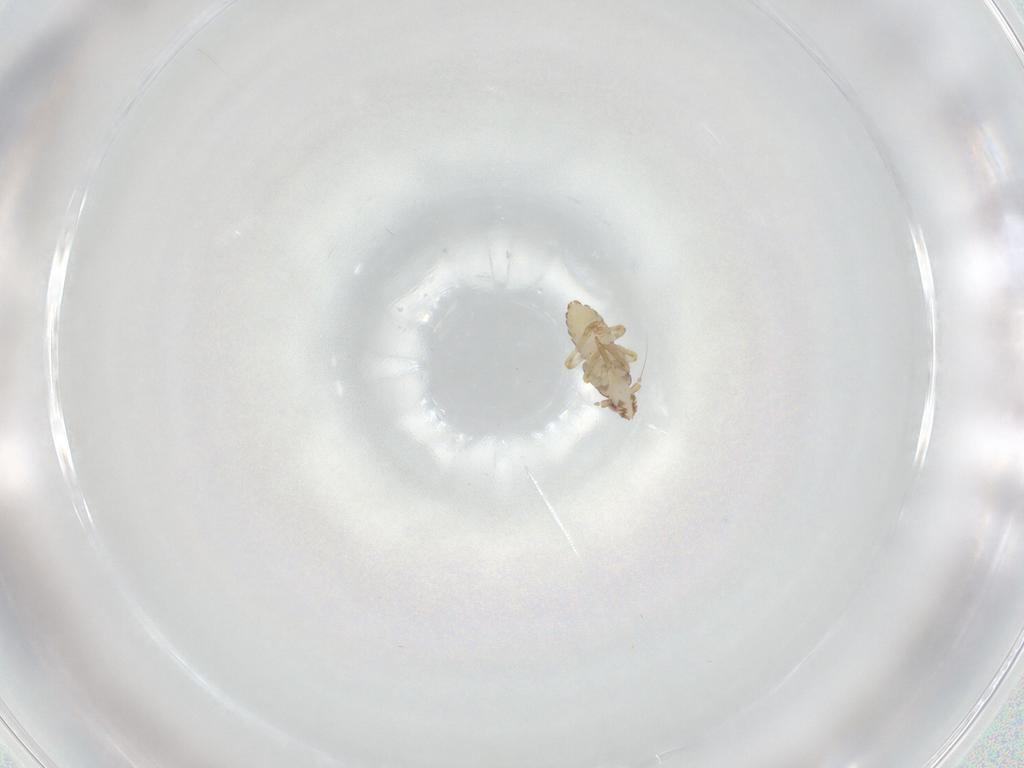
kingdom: Animalia
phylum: Arthropoda
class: Insecta
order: Hemiptera
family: Delphacidae
